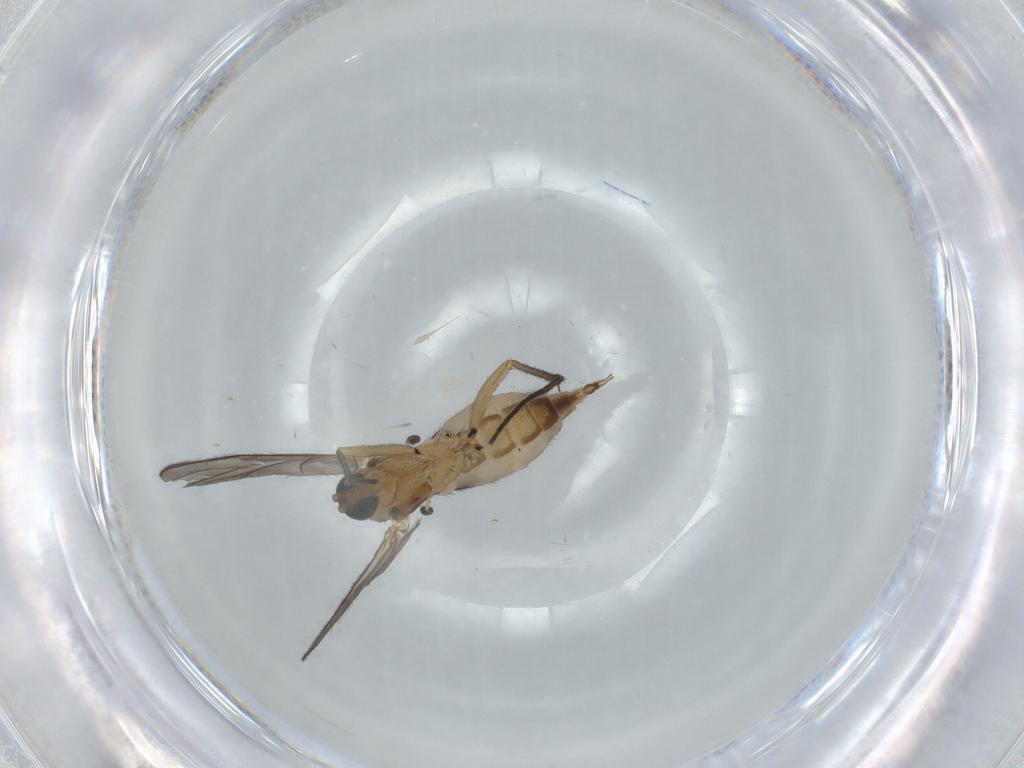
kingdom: Animalia
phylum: Arthropoda
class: Insecta
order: Diptera
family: Sciaridae
